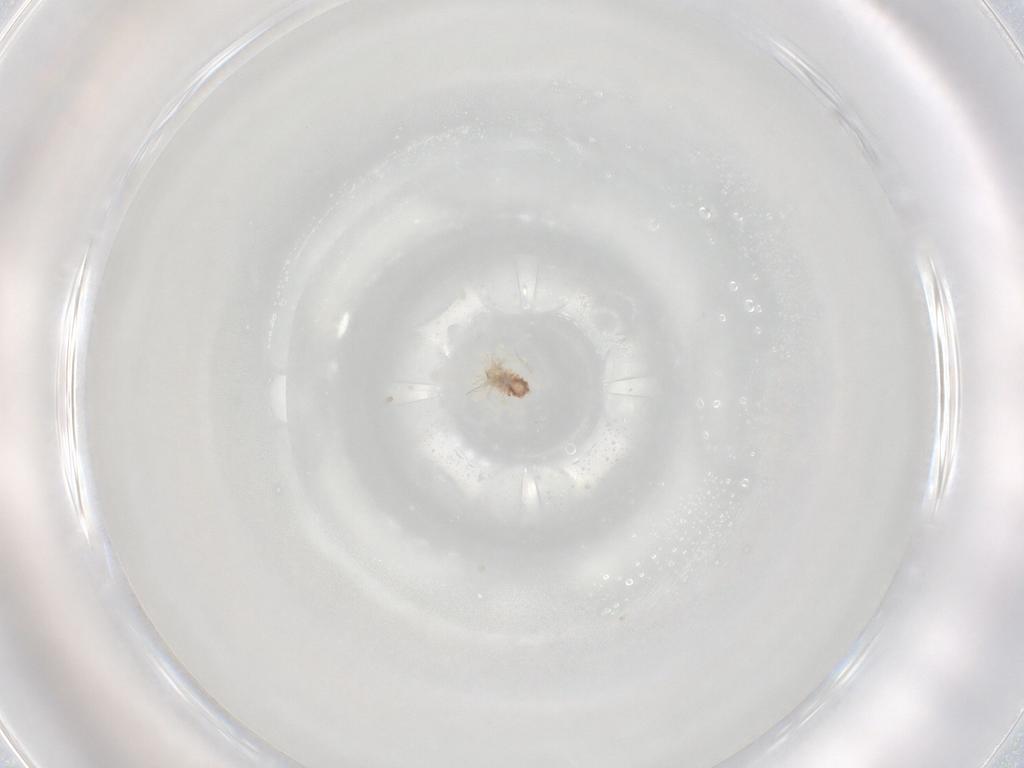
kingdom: Animalia
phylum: Arthropoda
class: Arachnida
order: Trombidiformes
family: Anystidae
